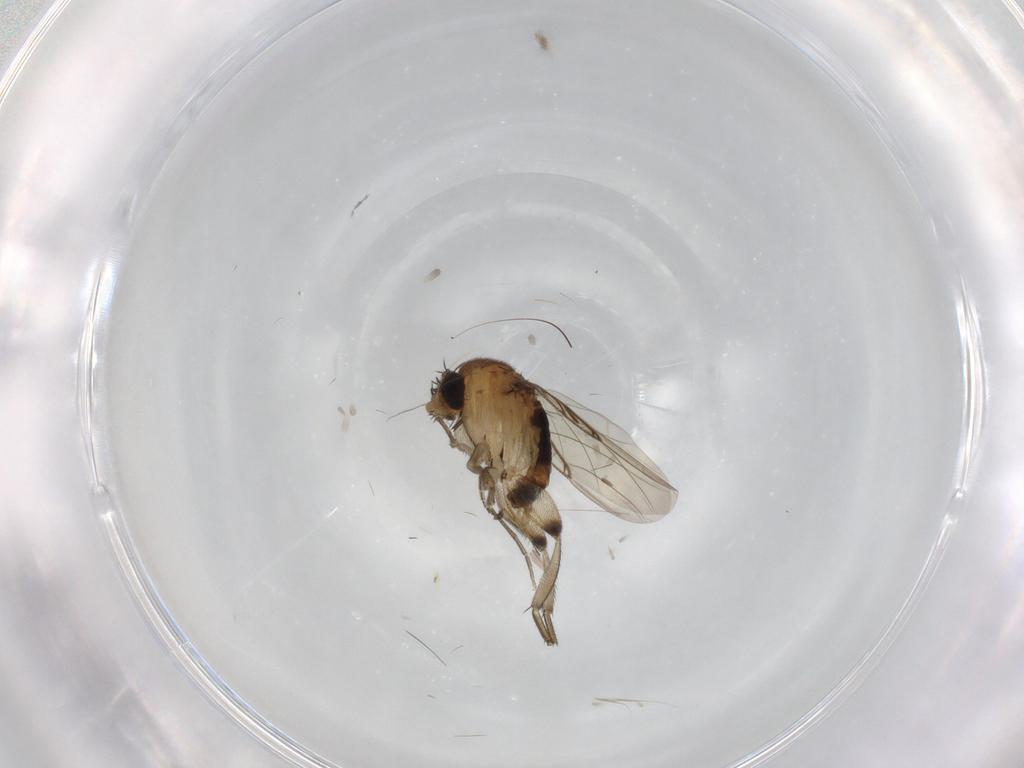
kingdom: Animalia
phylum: Arthropoda
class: Insecta
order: Diptera
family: Phoridae
